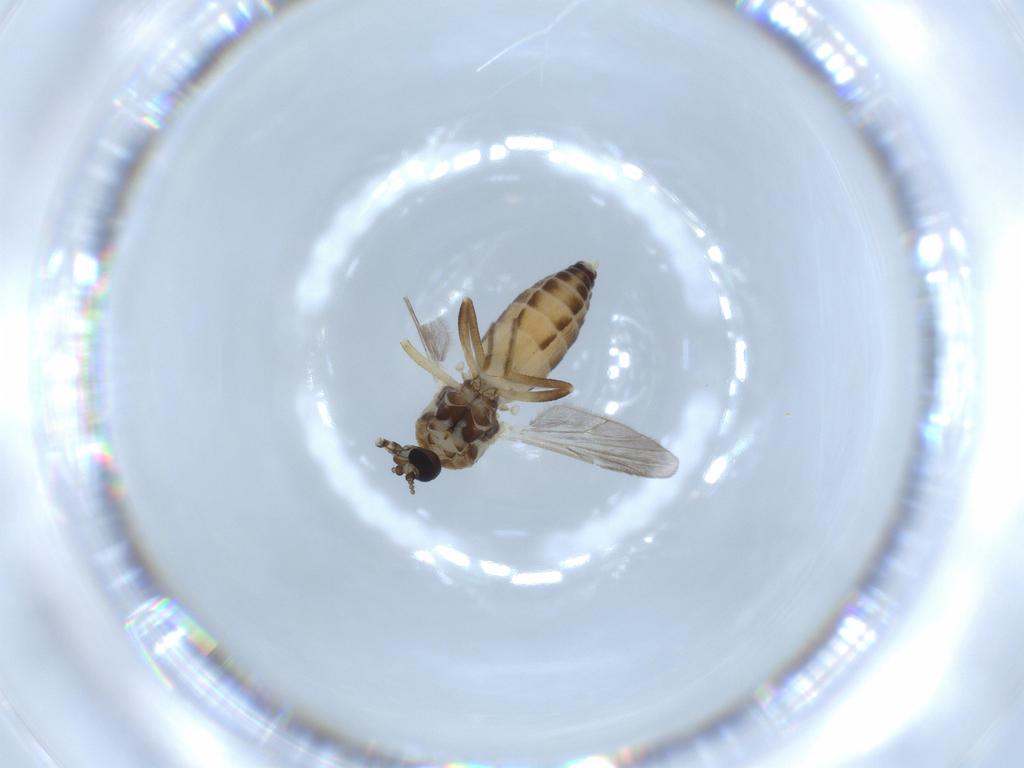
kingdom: Animalia
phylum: Arthropoda
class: Insecta
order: Diptera
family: Ceratopogonidae
